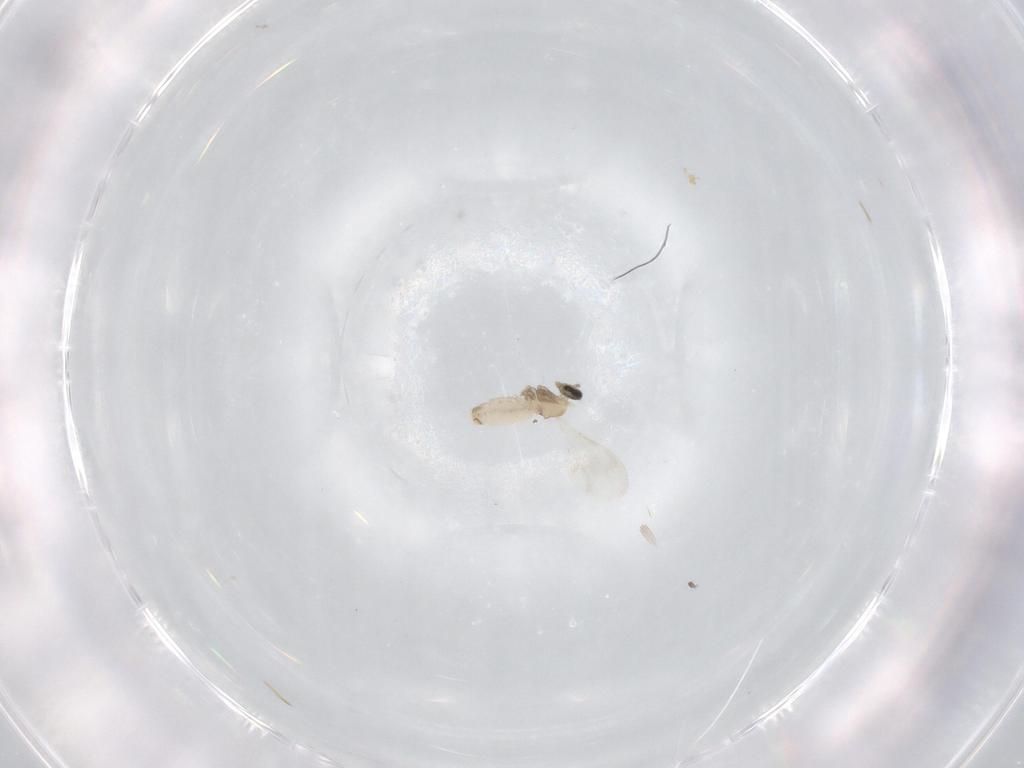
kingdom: Animalia
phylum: Arthropoda
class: Insecta
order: Diptera
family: Cecidomyiidae
